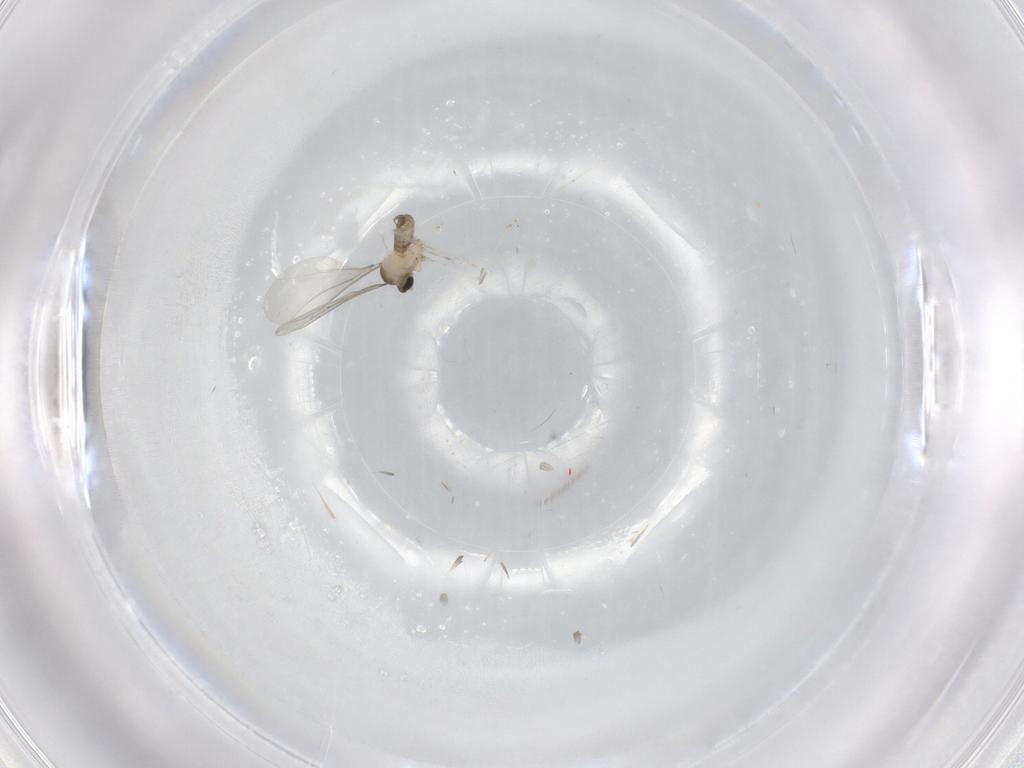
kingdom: Animalia
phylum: Arthropoda
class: Insecta
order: Diptera
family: Cecidomyiidae
